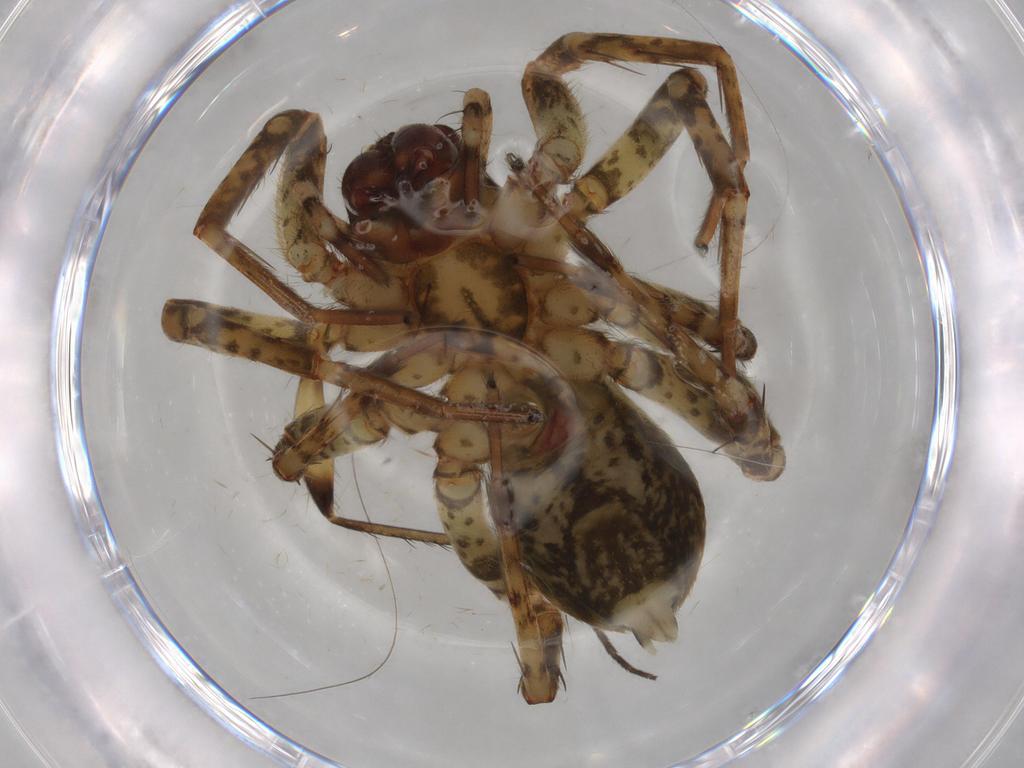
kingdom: Animalia
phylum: Arthropoda
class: Arachnida
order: Araneae
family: Anyphaenidae
